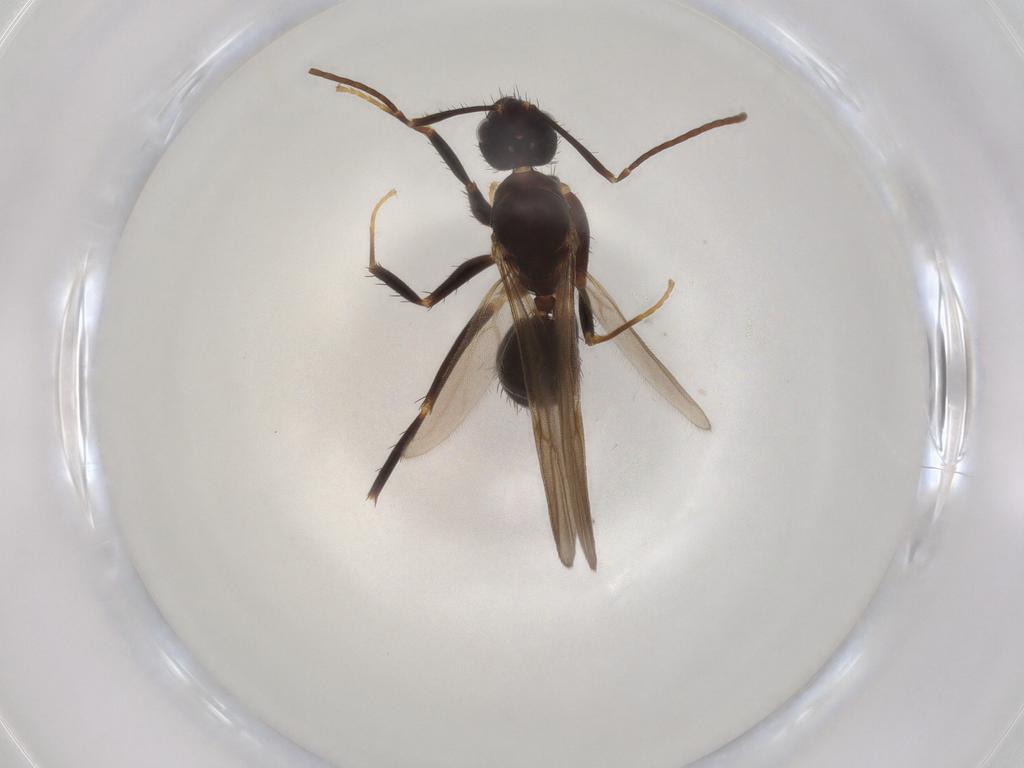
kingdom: Animalia
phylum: Arthropoda
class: Insecta
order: Hymenoptera
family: Formicidae
